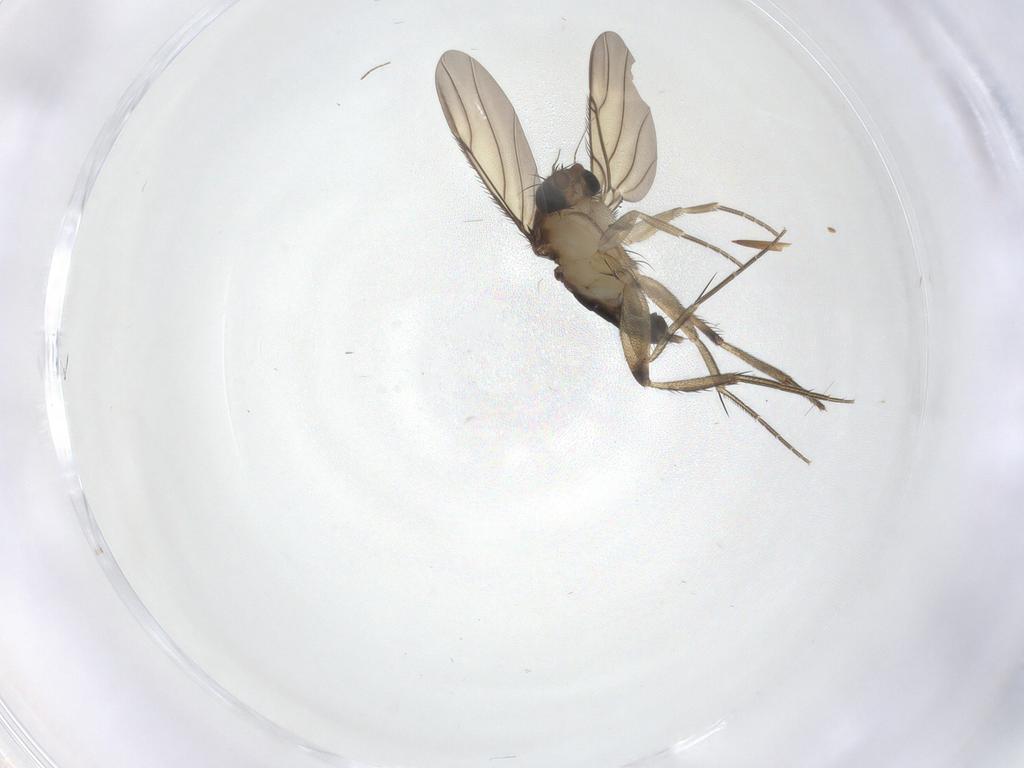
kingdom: Animalia
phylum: Arthropoda
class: Insecta
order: Diptera
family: Phoridae
